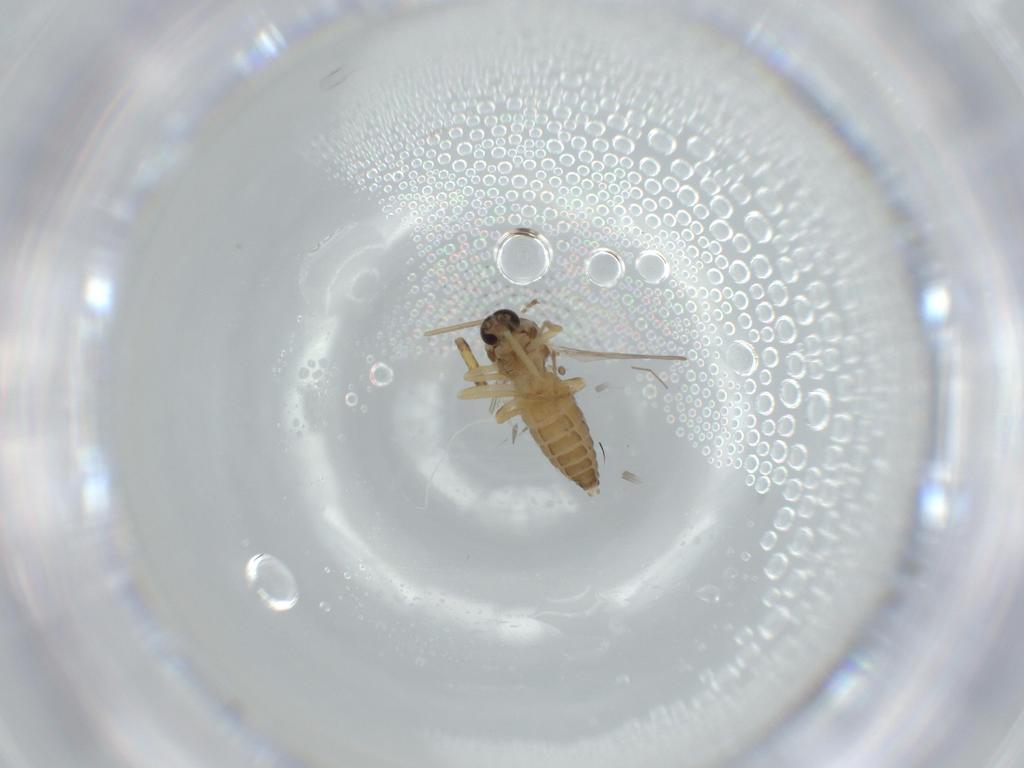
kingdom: Animalia
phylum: Arthropoda
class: Insecta
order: Diptera
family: Ceratopogonidae
